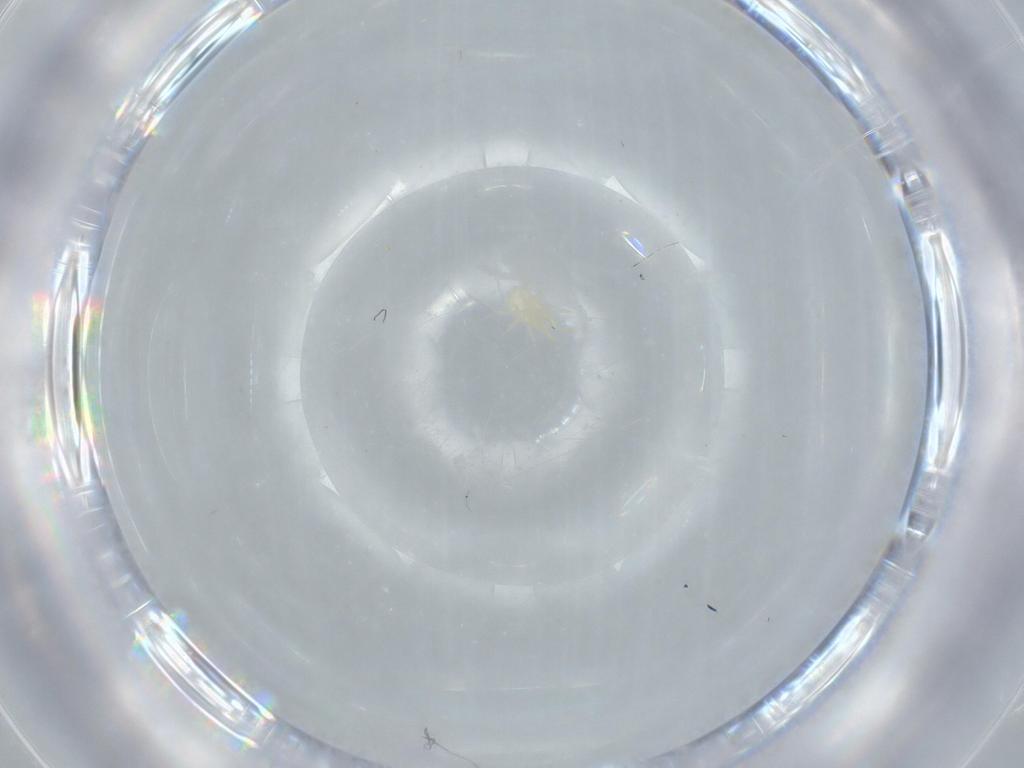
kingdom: Animalia
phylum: Arthropoda
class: Arachnida
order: Mesostigmata
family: Dermanyssidae
